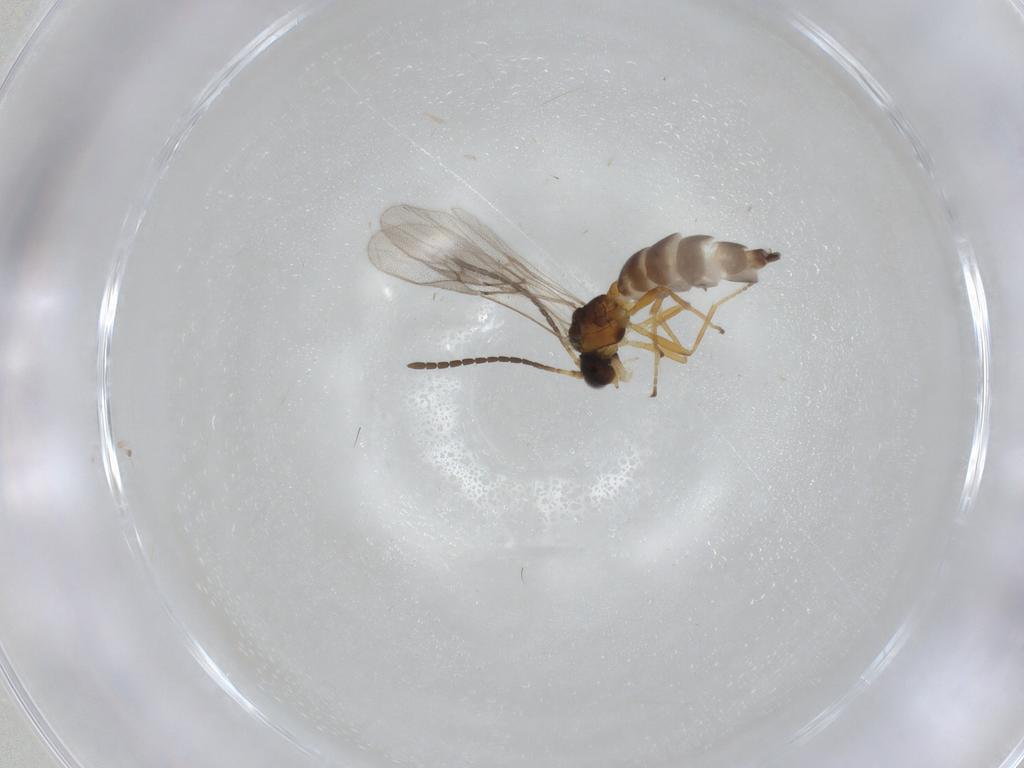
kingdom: Animalia
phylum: Arthropoda
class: Insecta
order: Hymenoptera
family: Braconidae
